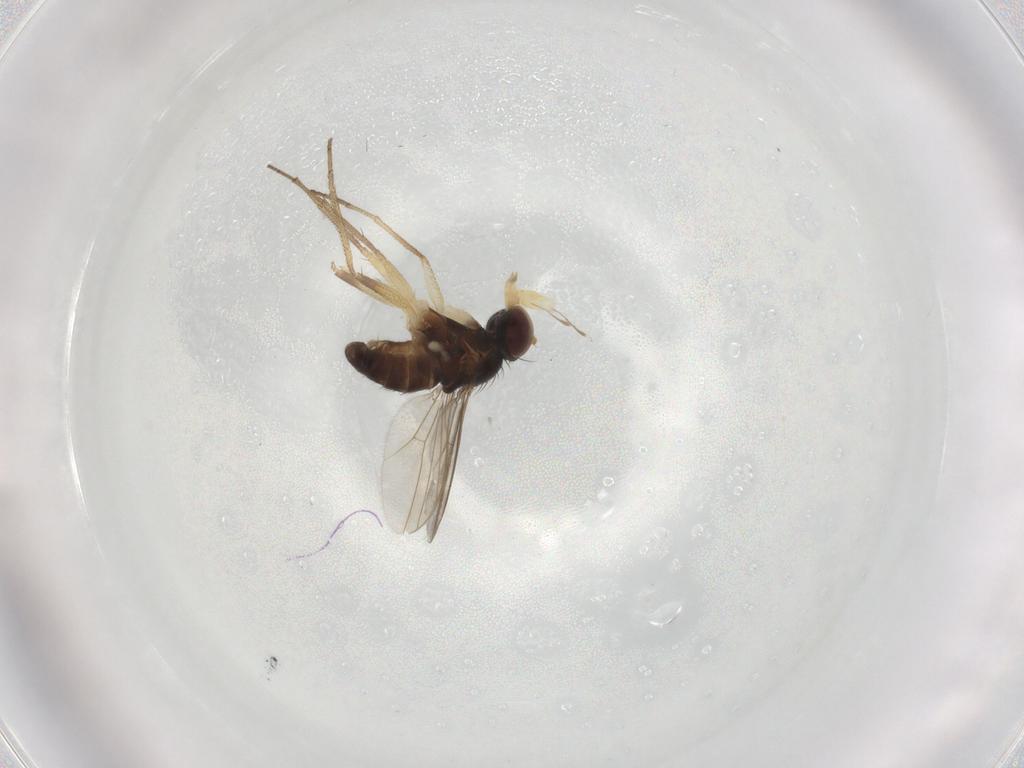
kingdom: Animalia
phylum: Arthropoda
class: Insecta
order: Diptera
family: Dolichopodidae
